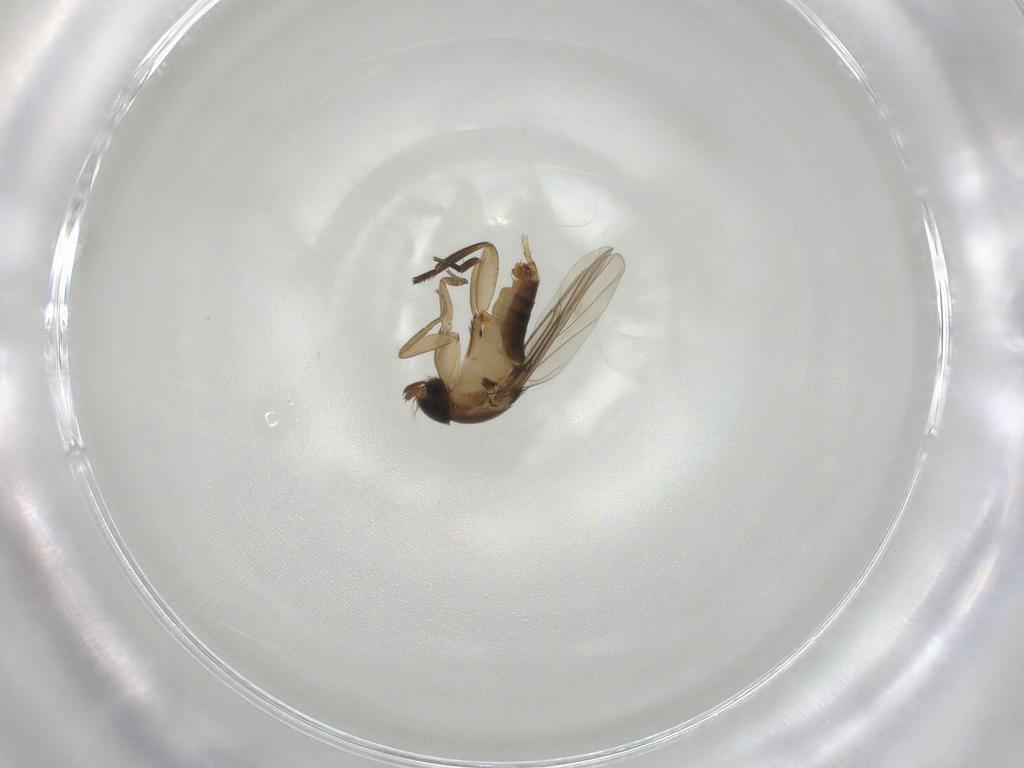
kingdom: Animalia
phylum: Arthropoda
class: Insecta
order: Diptera
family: Phoridae
